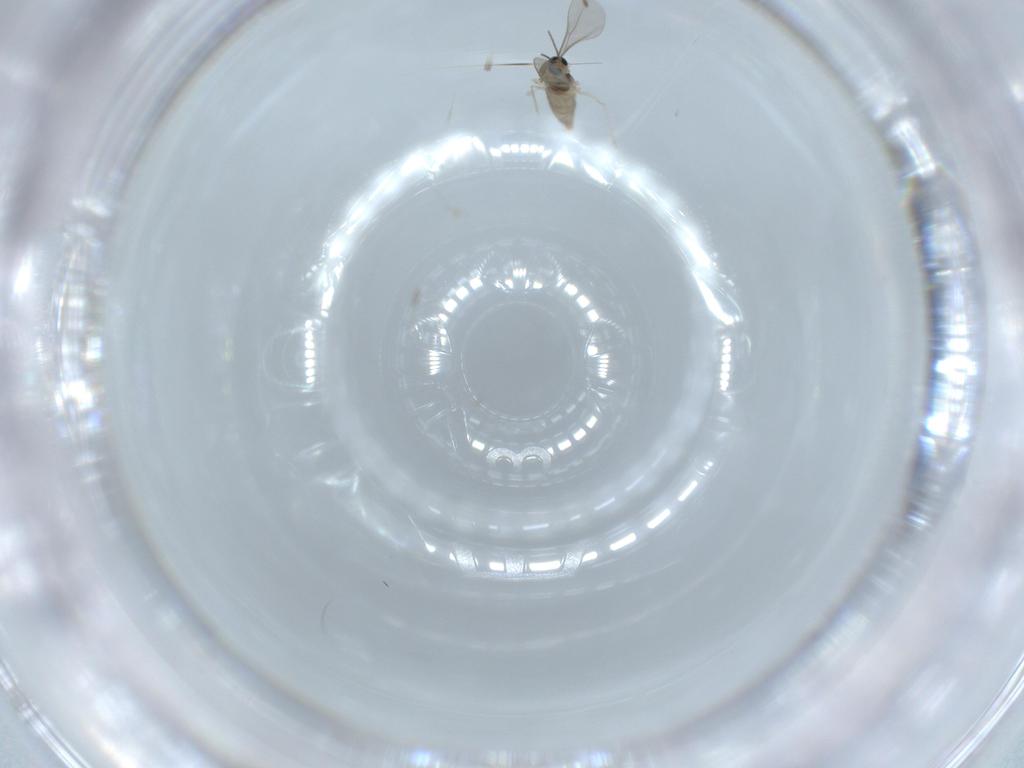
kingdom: Animalia
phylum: Arthropoda
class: Insecta
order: Diptera
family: Cecidomyiidae
